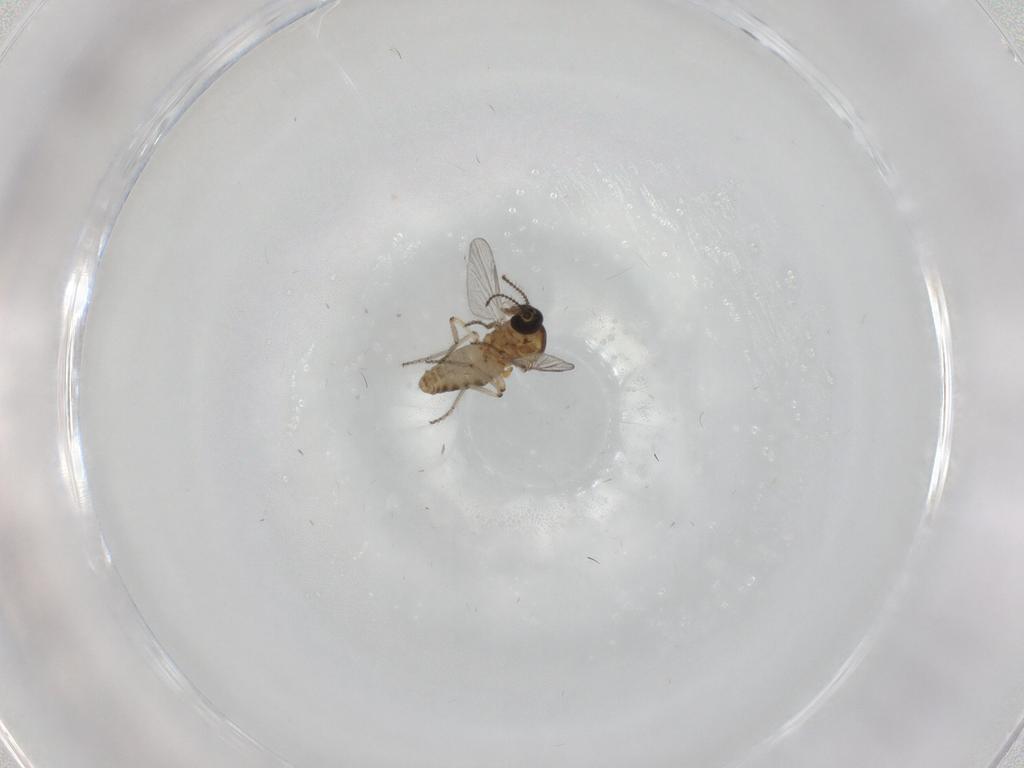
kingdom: Animalia
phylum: Arthropoda
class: Insecta
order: Diptera
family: Ceratopogonidae
